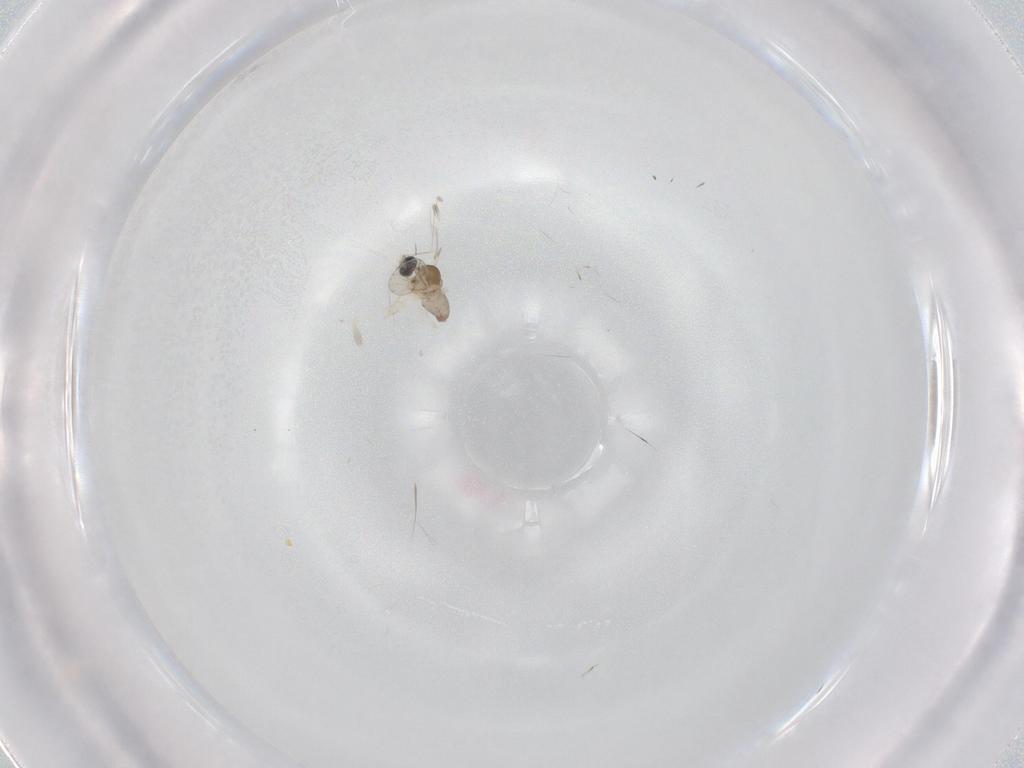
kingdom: Animalia
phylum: Arthropoda
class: Insecta
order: Diptera
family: Cecidomyiidae
